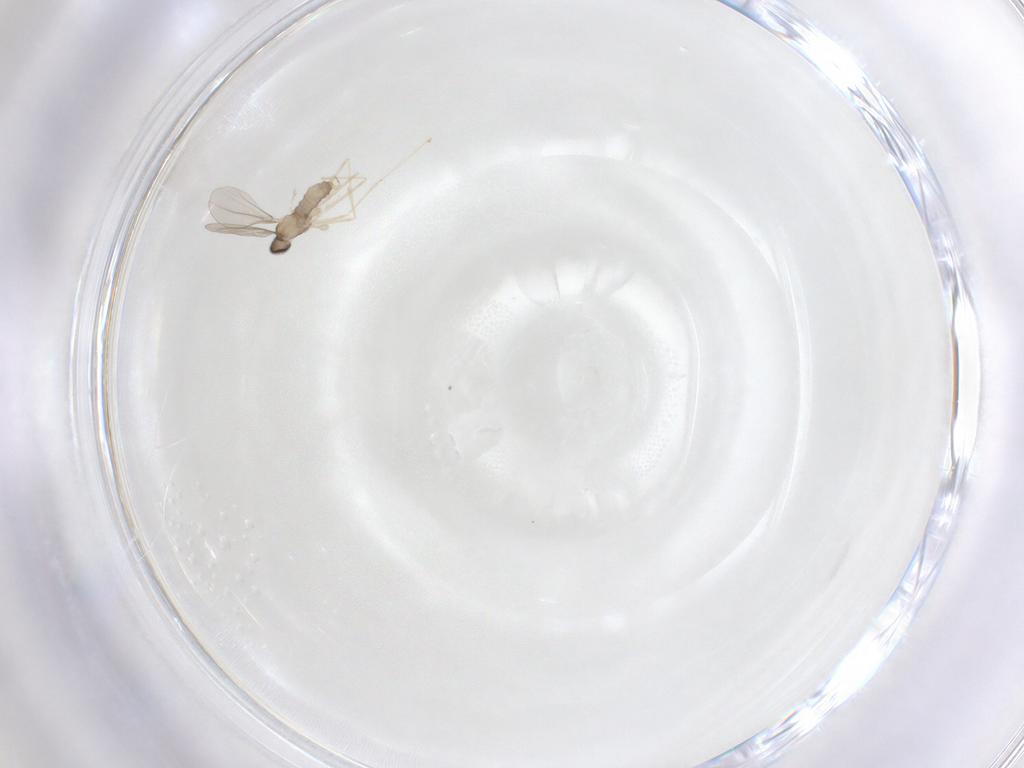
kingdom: Animalia
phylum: Arthropoda
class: Insecta
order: Diptera
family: Cecidomyiidae
